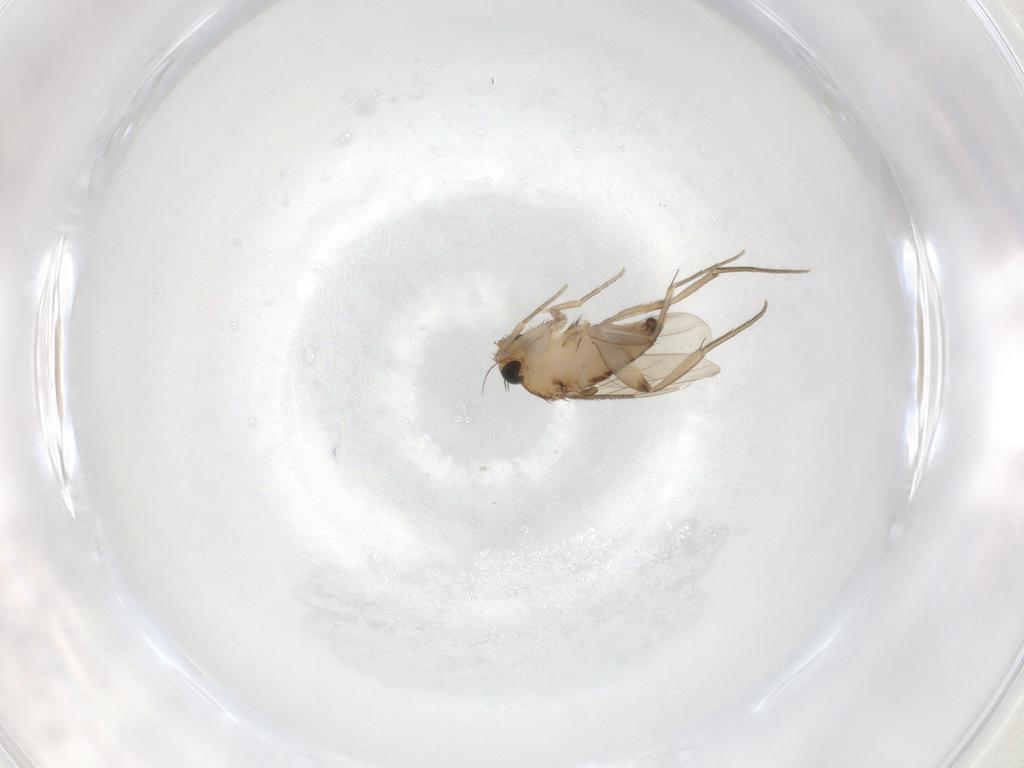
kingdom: Animalia
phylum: Arthropoda
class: Insecta
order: Diptera
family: Phoridae
